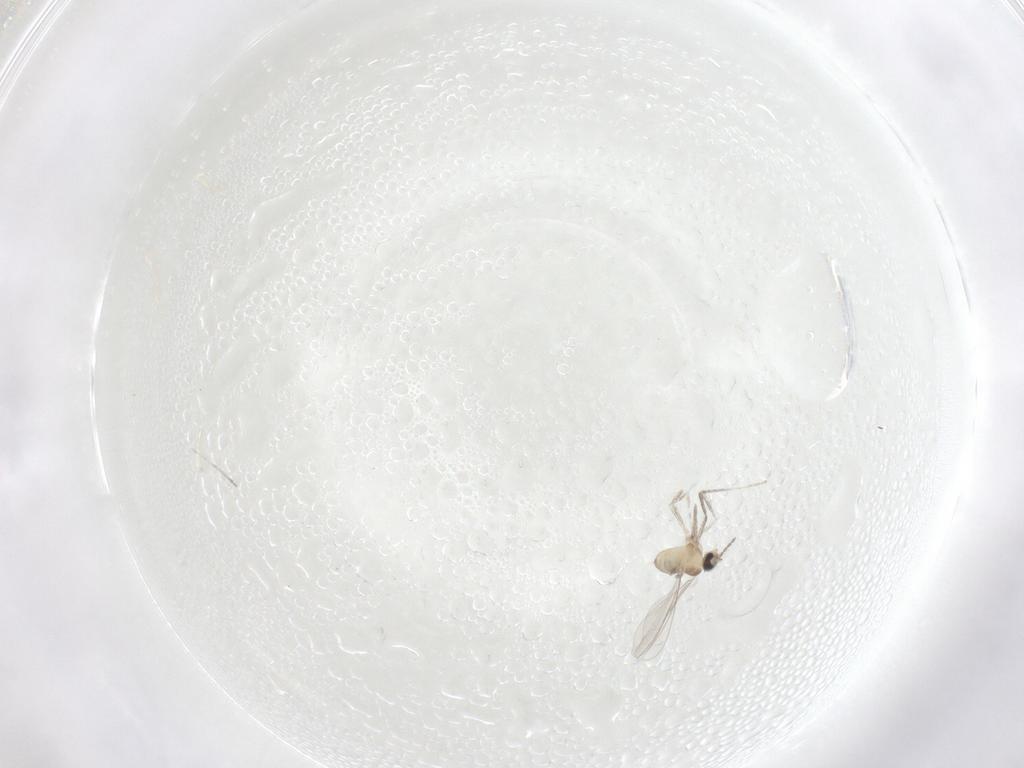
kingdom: Animalia
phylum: Arthropoda
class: Insecta
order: Diptera
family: Cecidomyiidae
